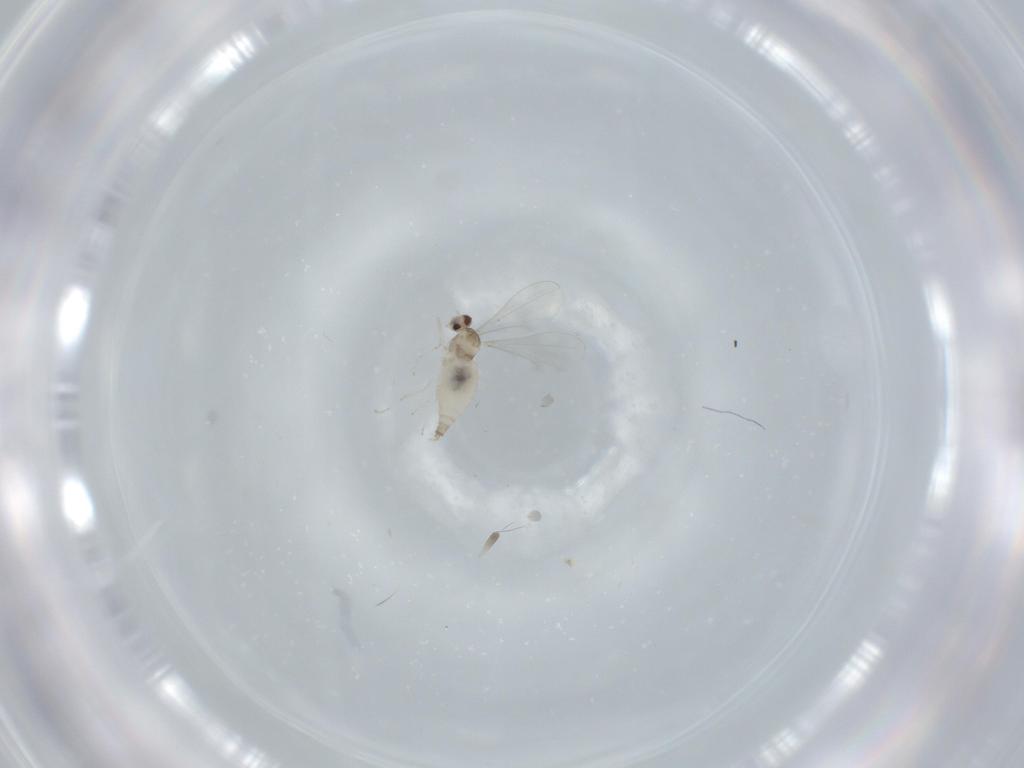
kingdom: Animalia
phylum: Arthropoda
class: Insecta
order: Diptera
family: Cecidomyiidae
